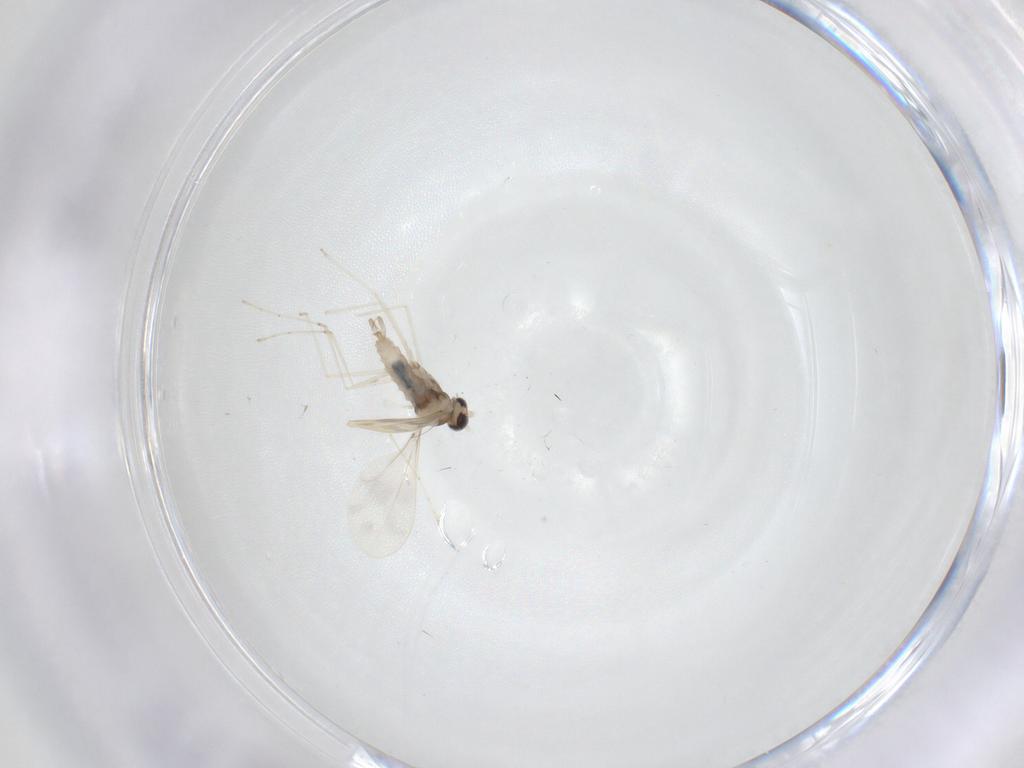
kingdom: Animalia
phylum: Arthropoda
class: Insecta
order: Diptera
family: Cecidomyiidae
